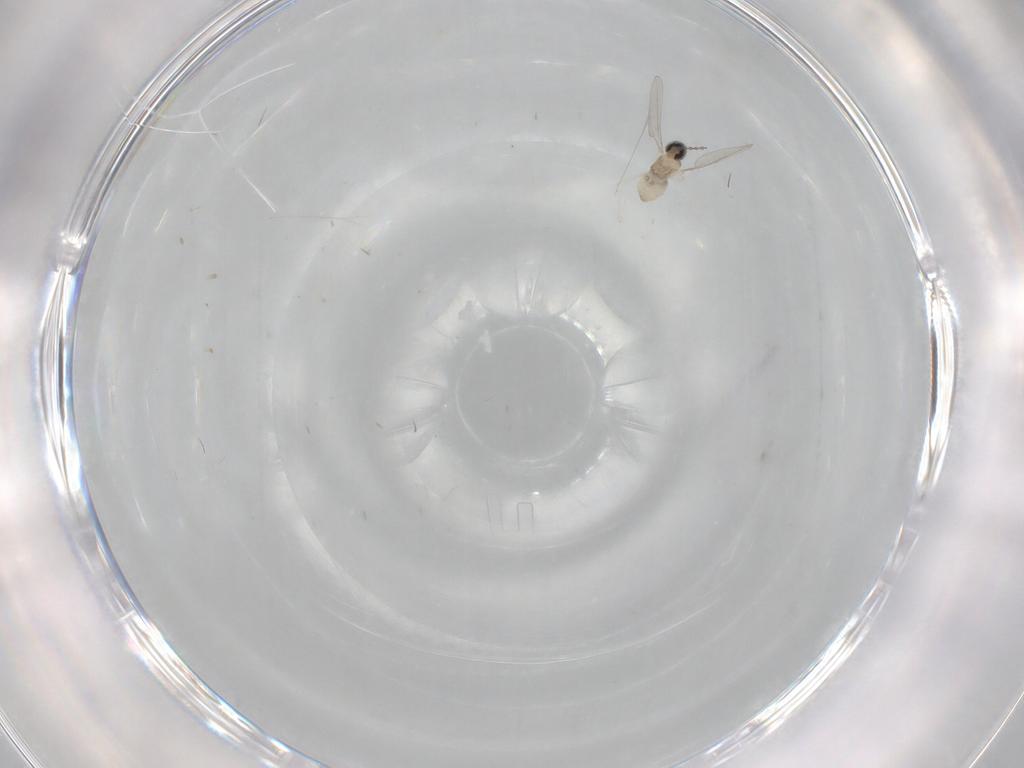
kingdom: Animalia
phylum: Arthropoda
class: Insecta
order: Diptera
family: Cecidomyiidae
